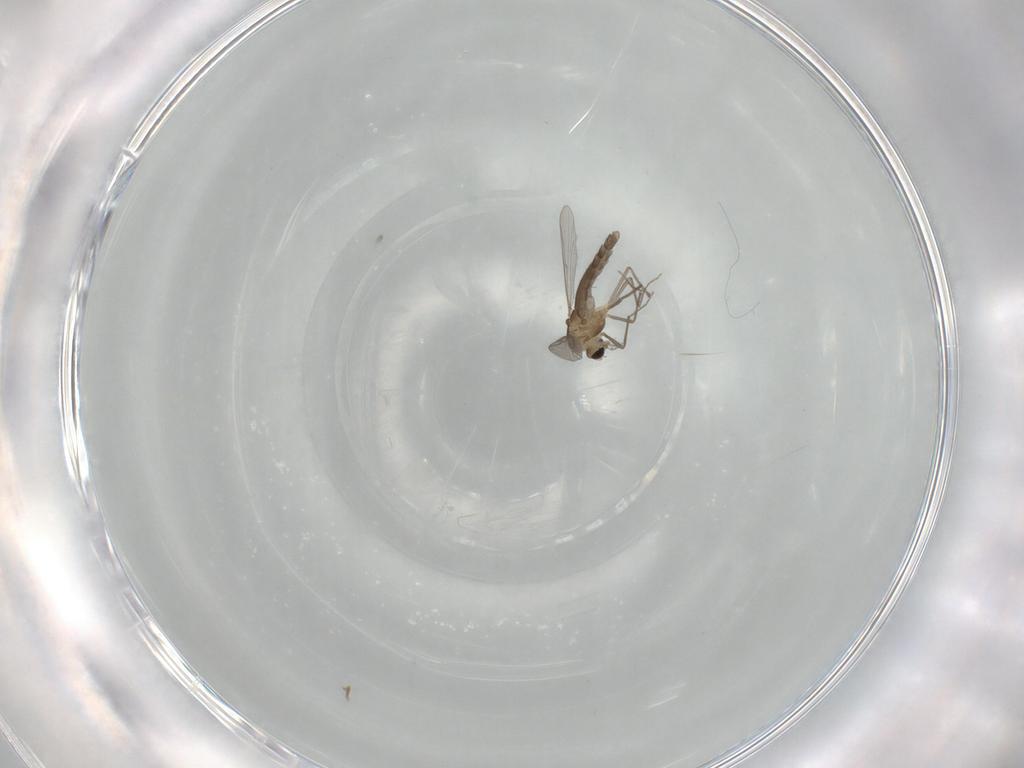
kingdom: Animalia
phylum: Arthropoda
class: Insecta
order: Diptera
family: Chironomidae
